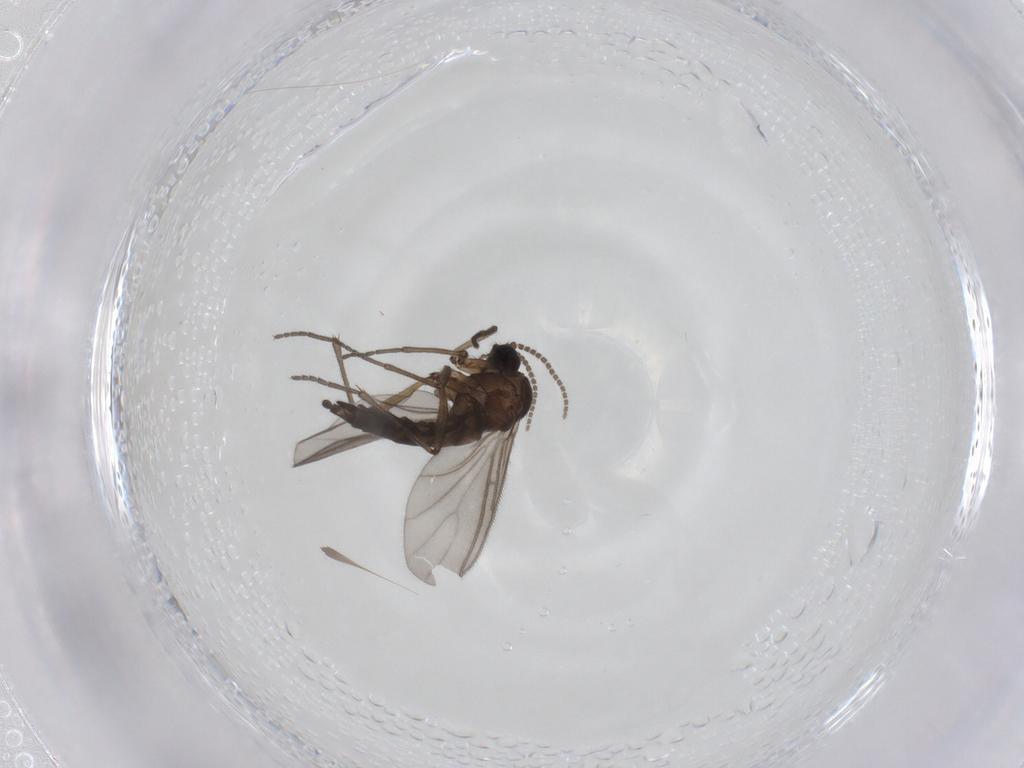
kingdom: Animalia
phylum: Arthropoda
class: Insecta
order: Diptera
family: Sciaridae
